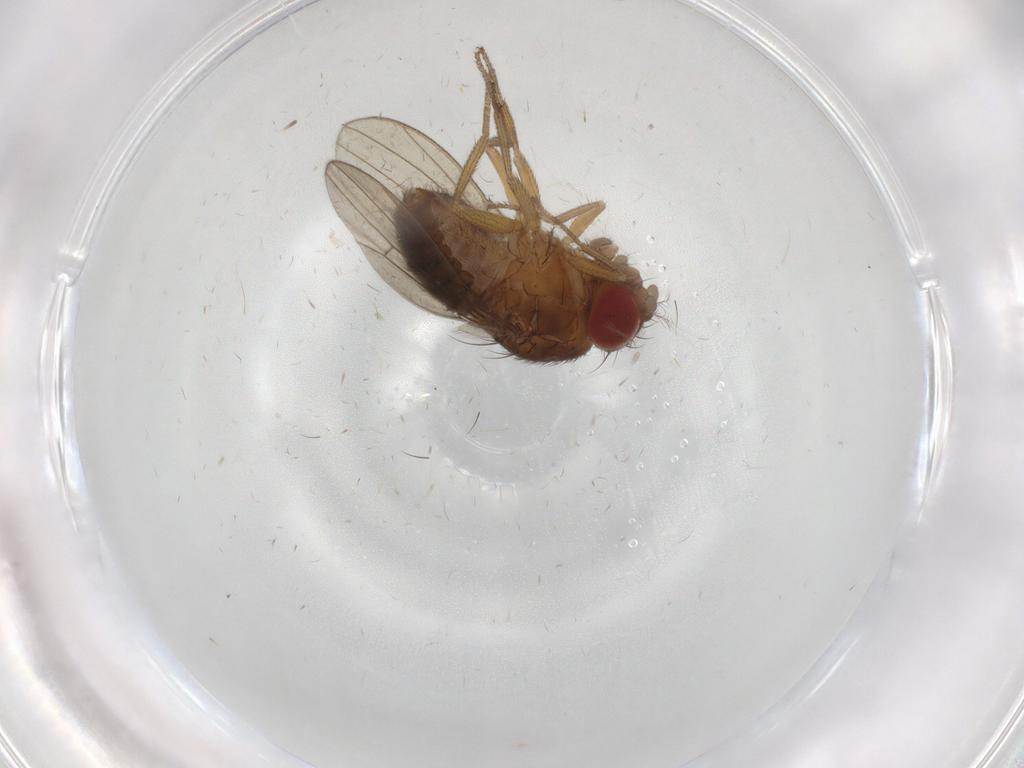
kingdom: Animalia
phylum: Arthropoda
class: Insecta
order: Diptera
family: Drosophilidae
